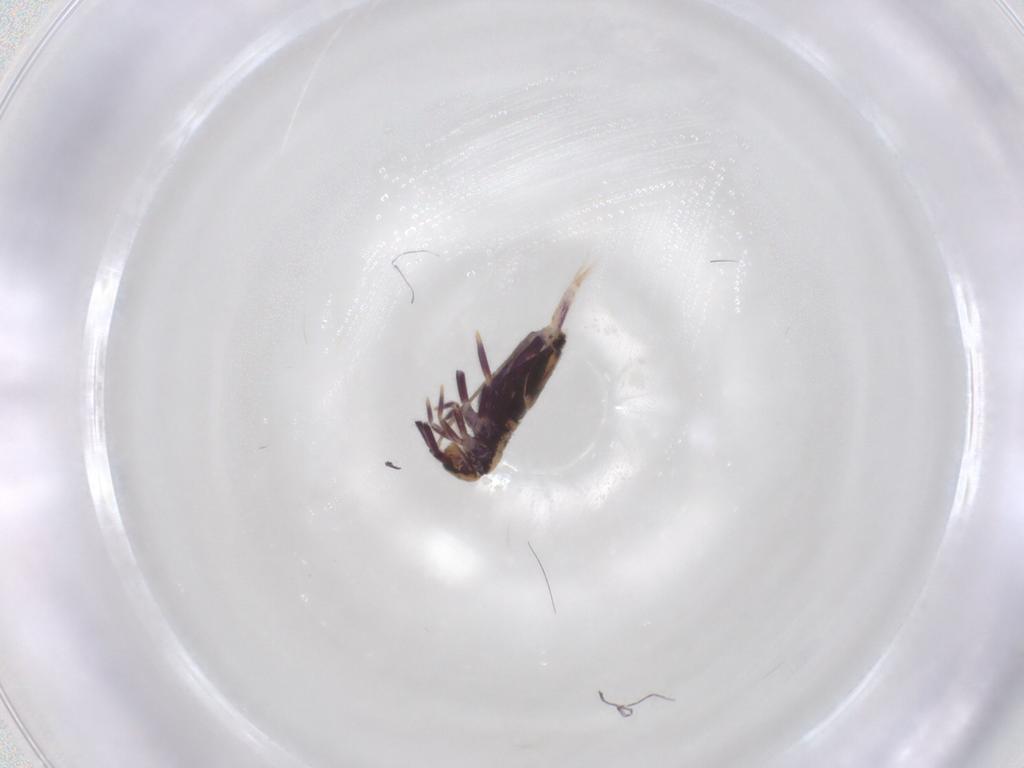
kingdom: Animalia
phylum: Arthropoda
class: Collembola
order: Entomobryomorpha
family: Entomobryidae
